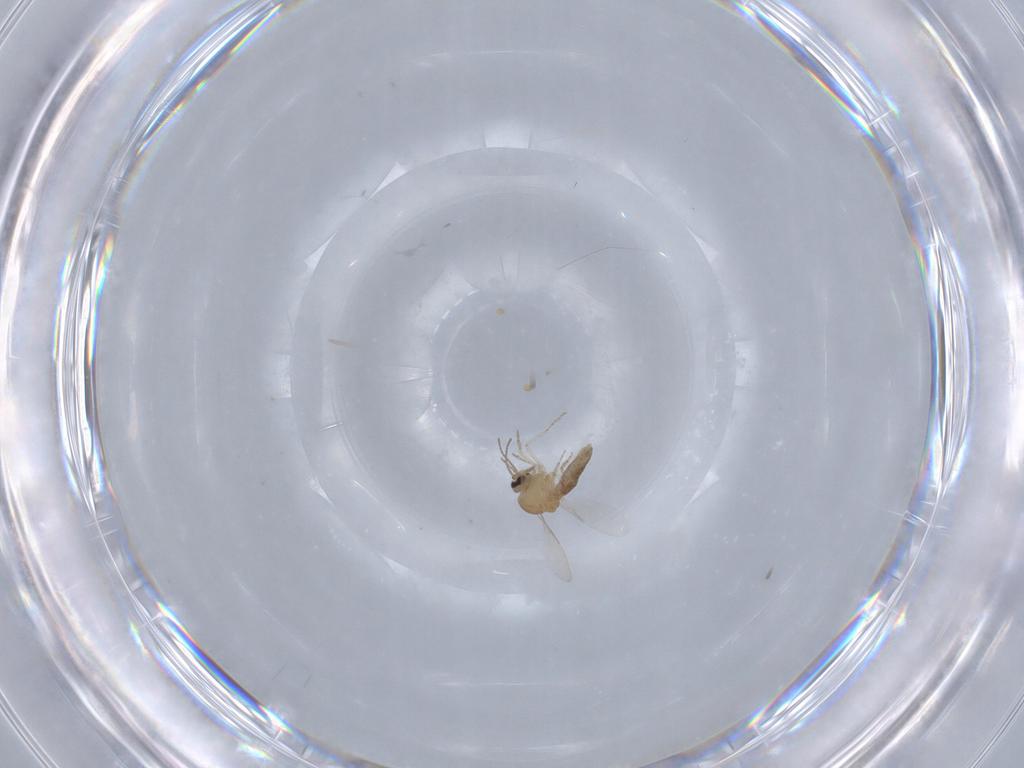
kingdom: Animalia
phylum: Arthropoda
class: Insecta
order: Diptera
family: Ceratopogonidae
